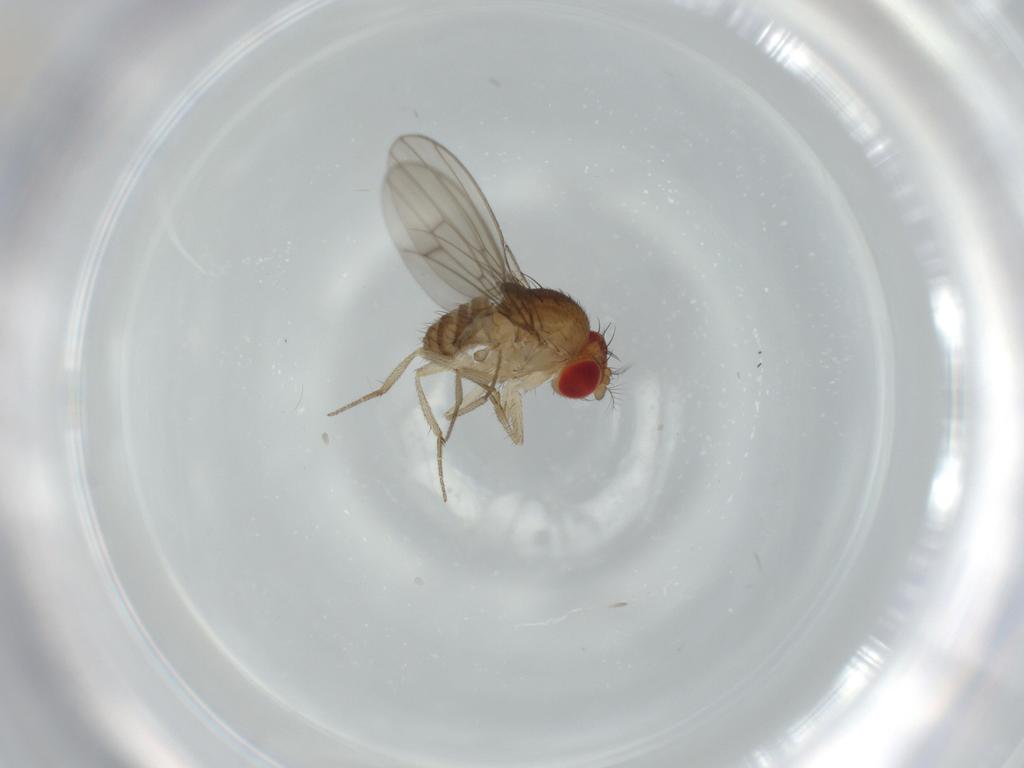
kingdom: Animalia
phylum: Arthropoda
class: Insecta
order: Diptera
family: Drosophilidae
